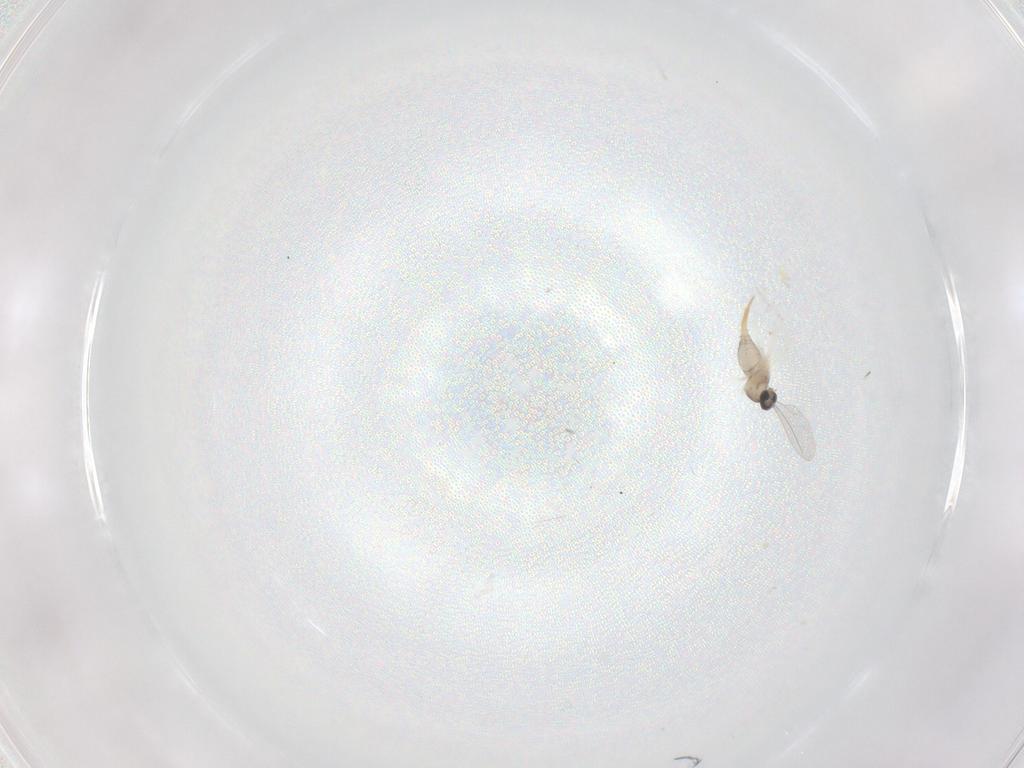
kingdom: Animalia
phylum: Arthropoda
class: Insecta
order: Diptera
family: Cecidomyiidae
